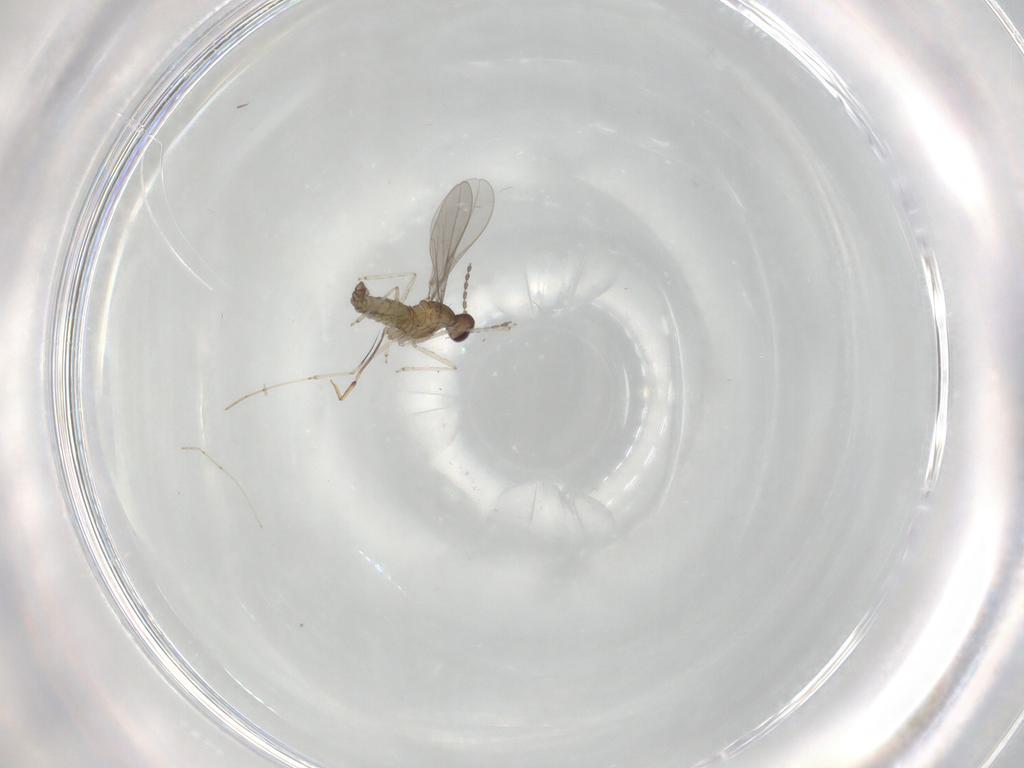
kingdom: Animalia
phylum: Arthropoda
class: Insecta
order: Diptera
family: Cecidomyiidae
